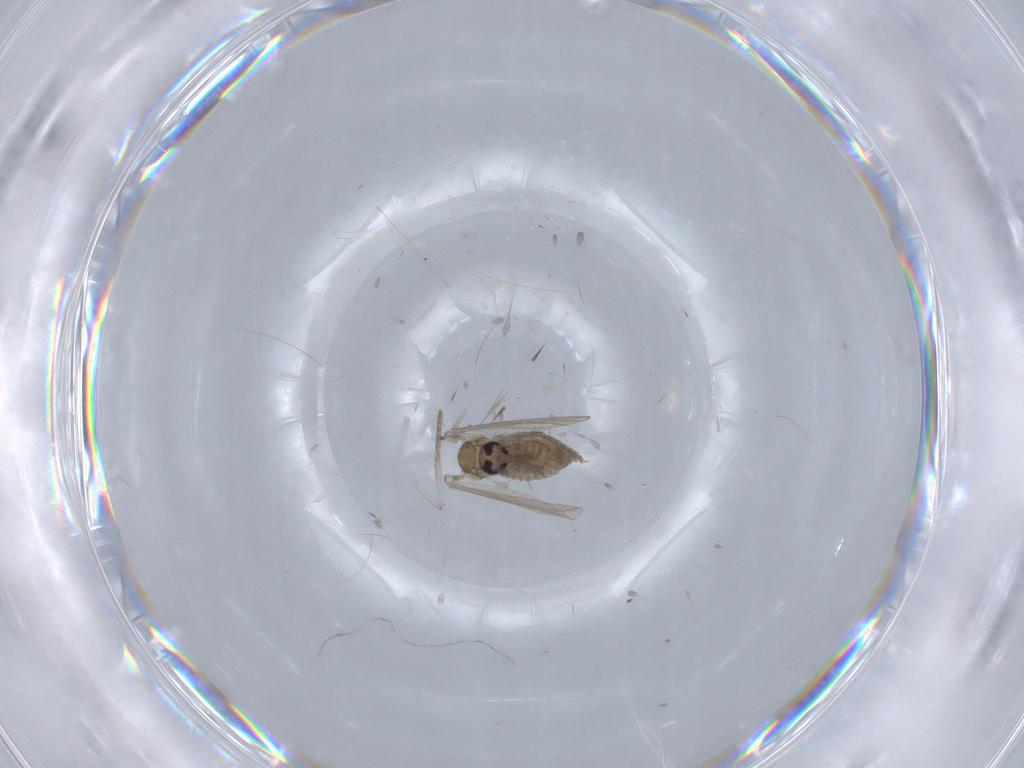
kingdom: Animalia
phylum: Arthropoda
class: Insecta
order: Diptera
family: Psychodidae
